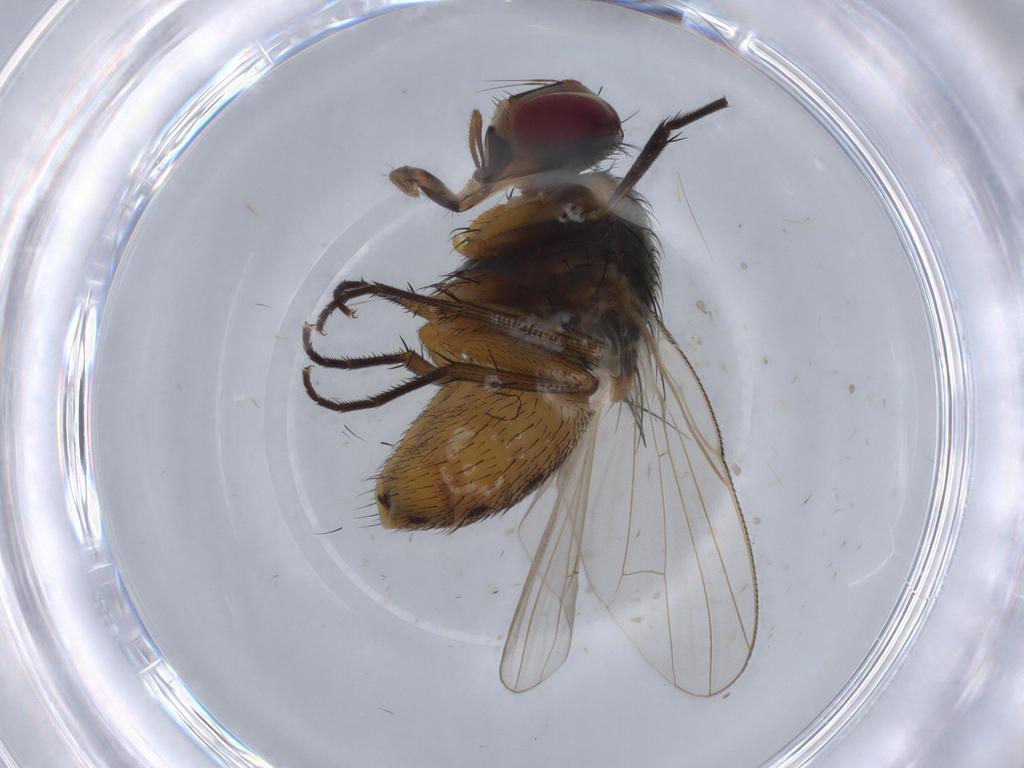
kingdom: Animalia
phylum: Arthropoda
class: Insecta
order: Diptera
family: Muscidae
